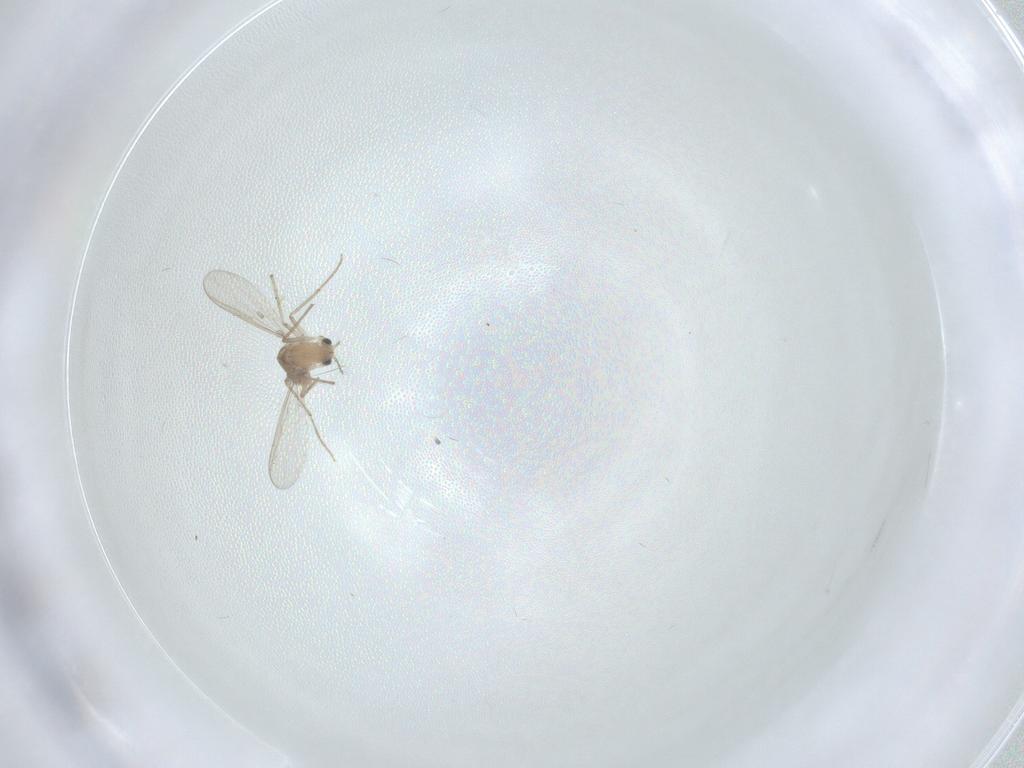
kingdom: Animalia
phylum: Arthropoda
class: Insecta
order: Diptera
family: Chironomidae
